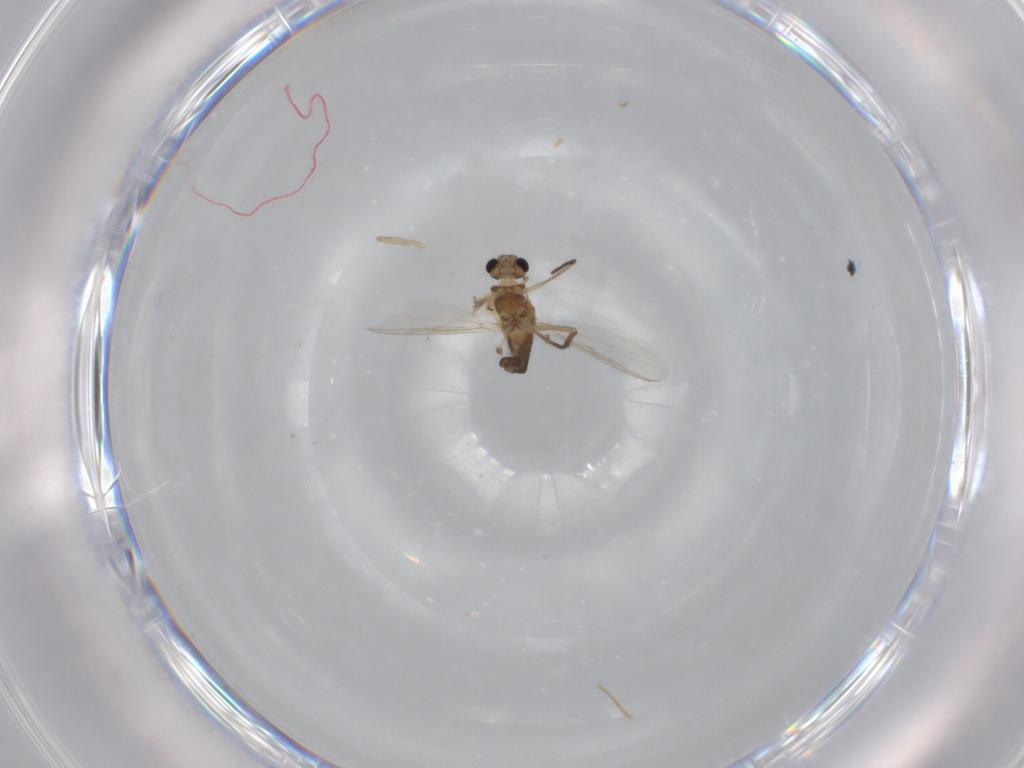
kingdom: Animalia
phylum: Arthropoda
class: Insecta
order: Diptera
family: Chironomidae
